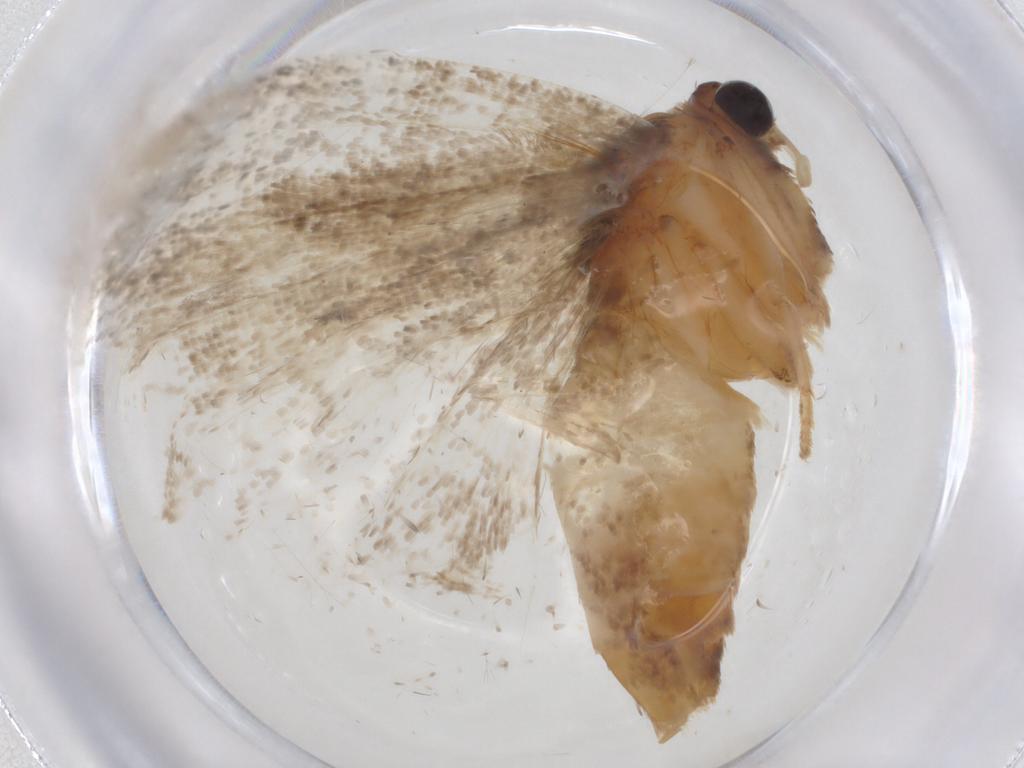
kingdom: Animalia
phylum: Arthropoda
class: Insecta
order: Lepidoptera
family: Tortricidae
